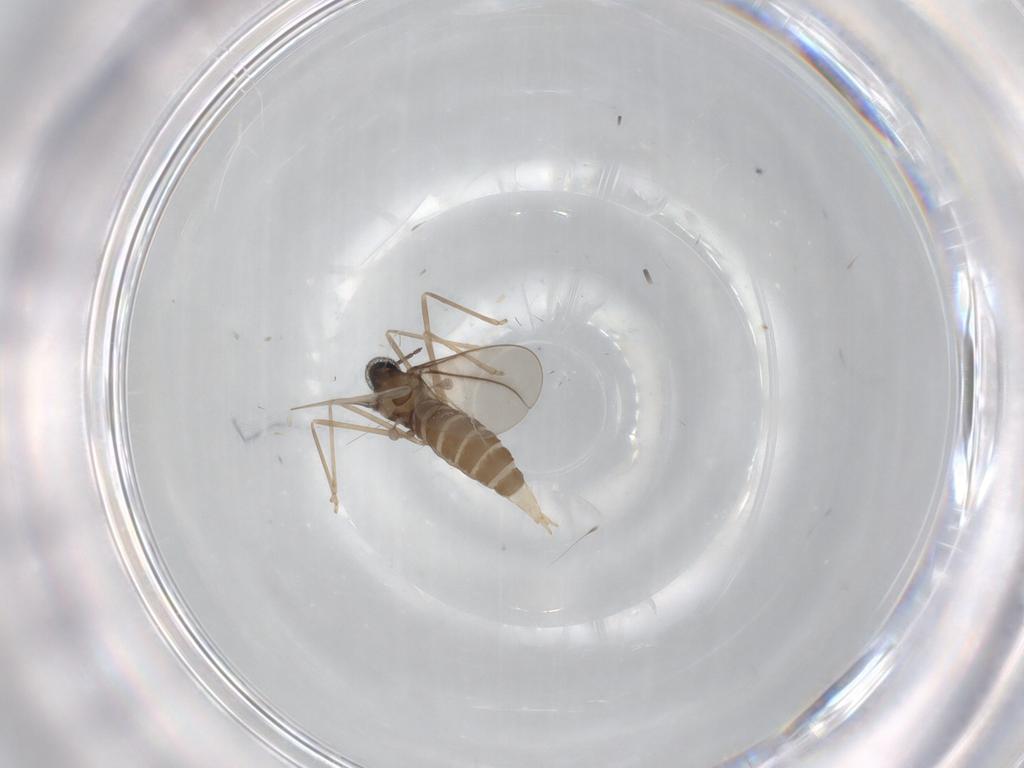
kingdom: Animalia
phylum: Arthropoda
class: Insecta
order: Diptera
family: Cecidomyiidae
